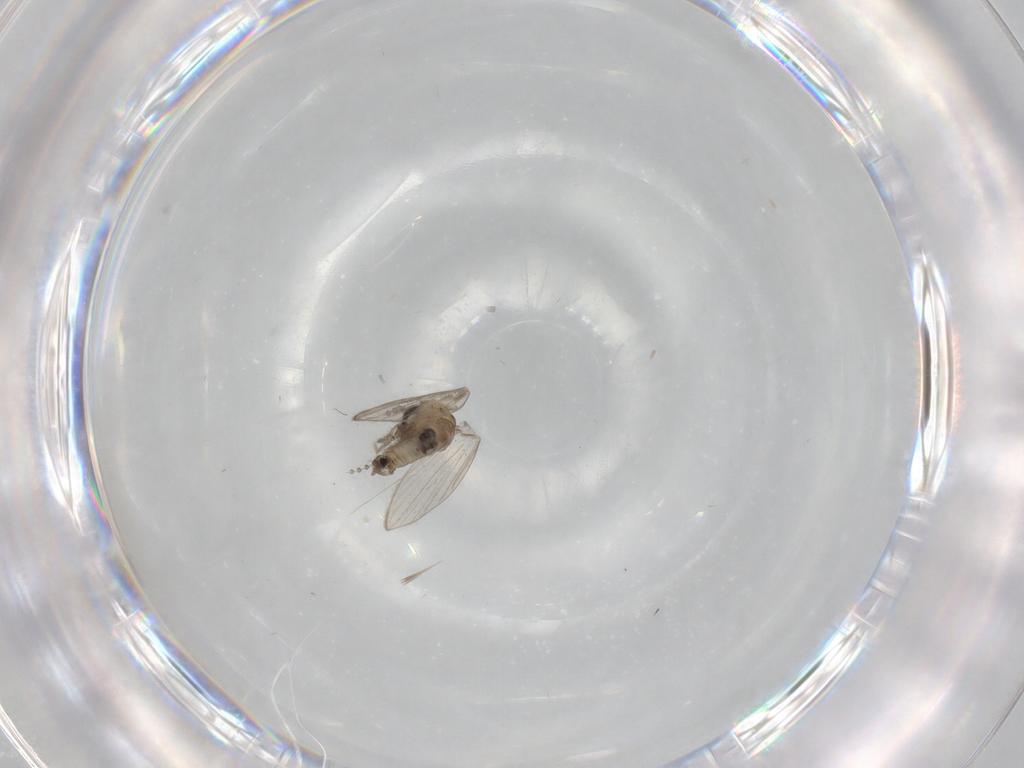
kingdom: Animalia
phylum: Arthropoda
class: Insecta
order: Diptera
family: Psychodidae
